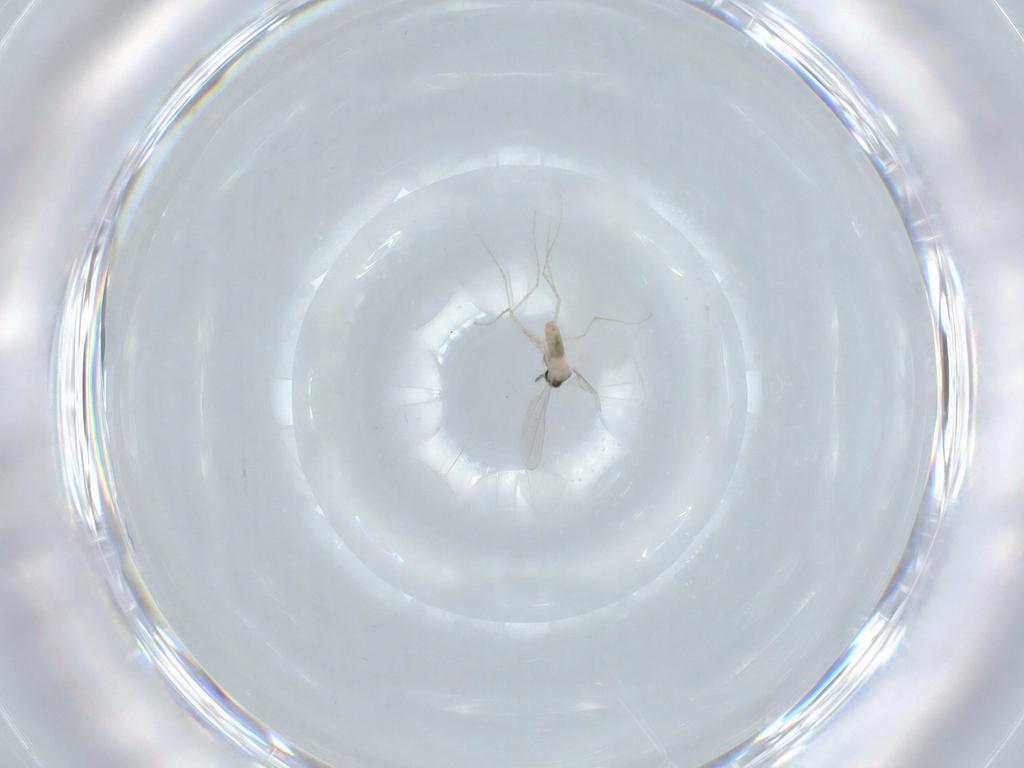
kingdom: Animalia
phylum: Arthropoda
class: Insecta
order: Diptera
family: Cecidomyiidae
